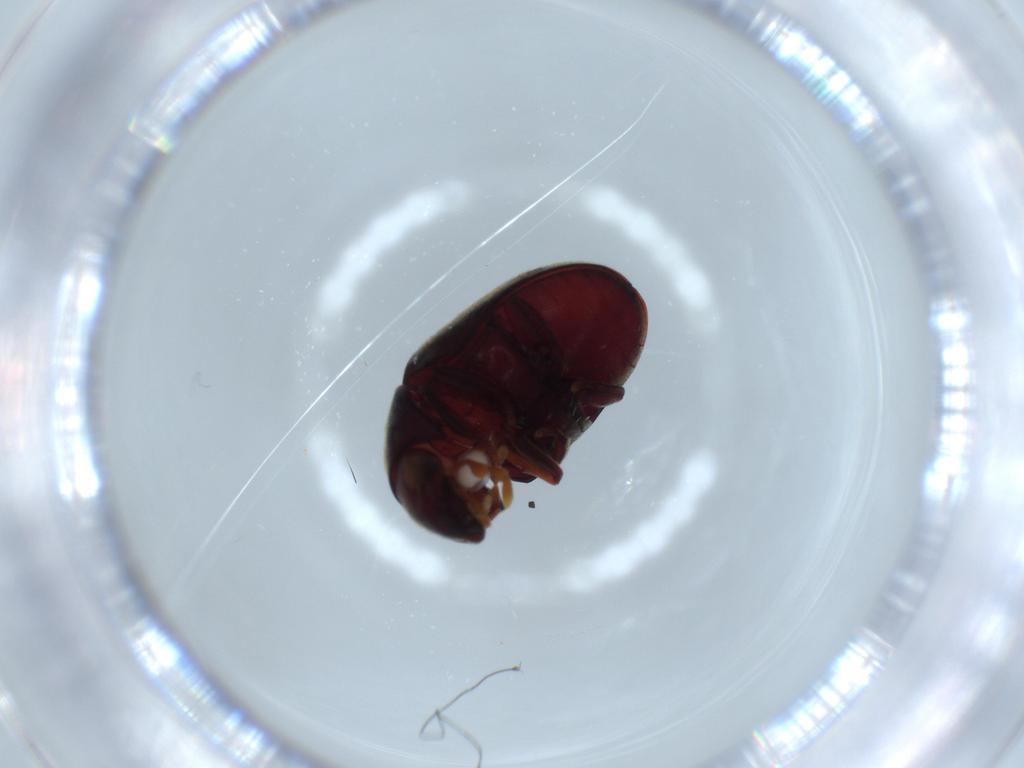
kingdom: Animalia
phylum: Arthropoda
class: Insecta
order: Coleoptera
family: Ptinidae
